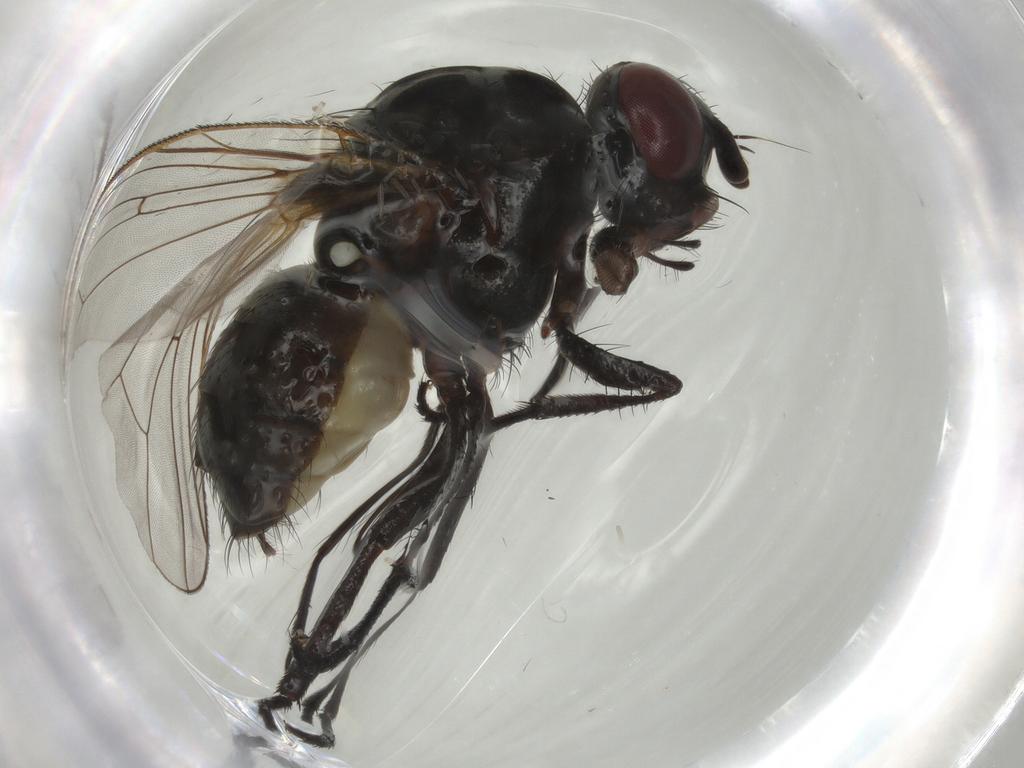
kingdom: Animalia
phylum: Arthropoda
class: Insecta
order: Diptera
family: Anthomyiidae
